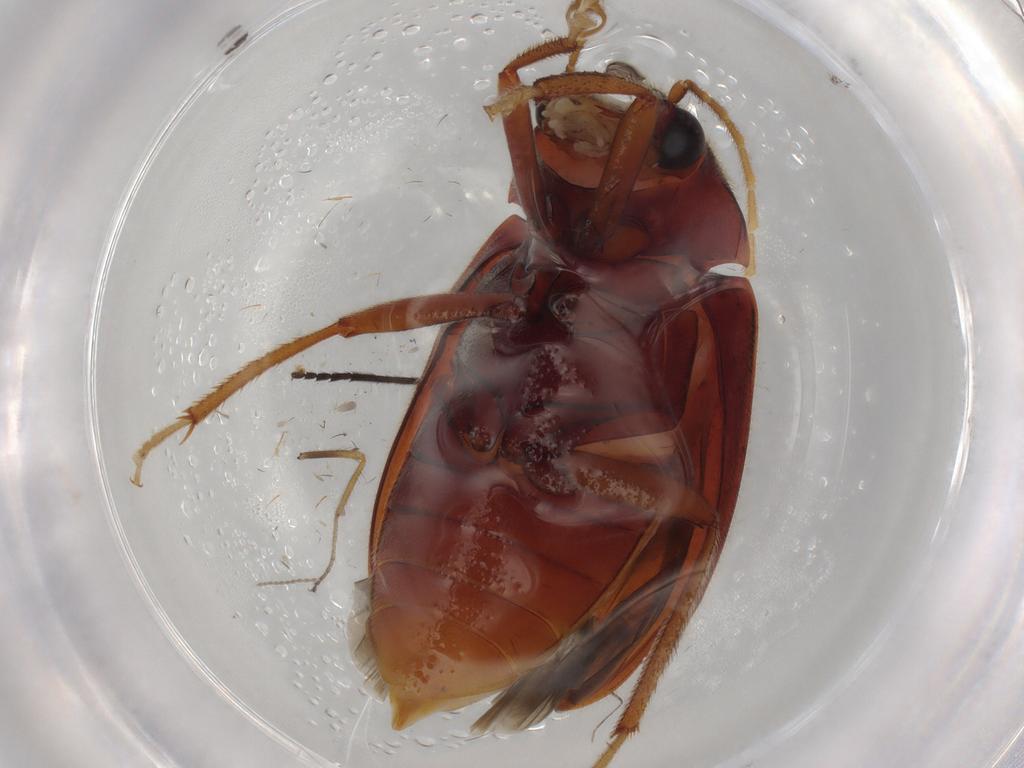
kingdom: Animalia
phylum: Arthropoda
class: Insecta
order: Coleoptera
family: Ptilodactylidae
